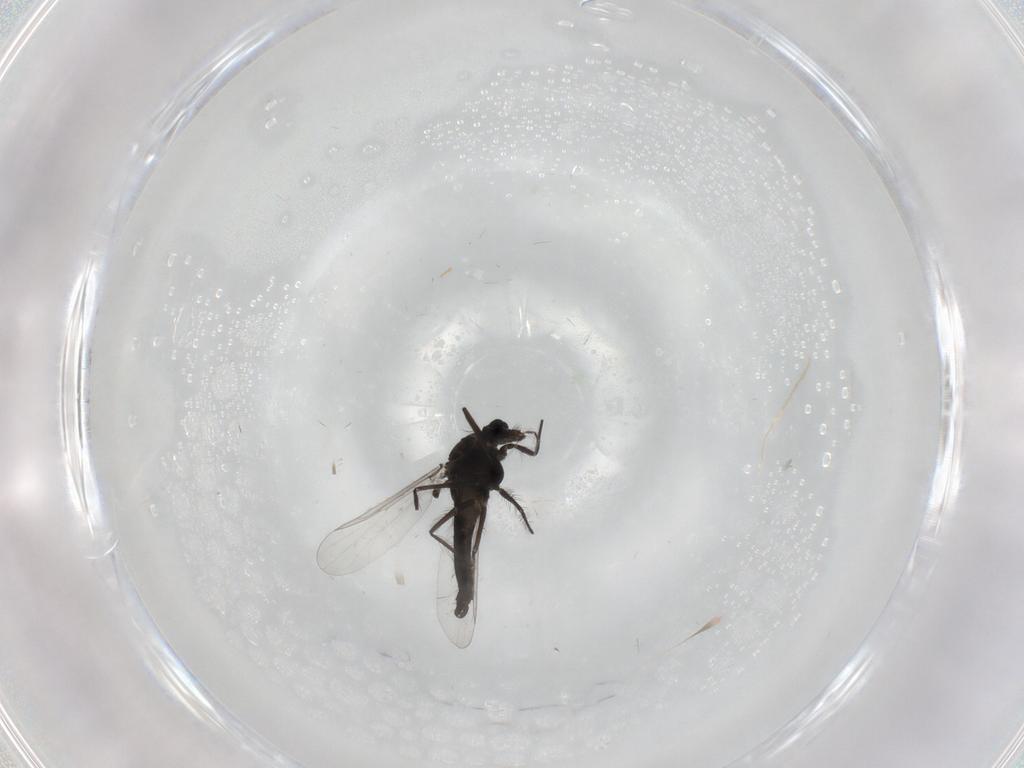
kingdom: Animalia
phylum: Arthropoda
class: Insecta
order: Diptera
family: Chironomidae
